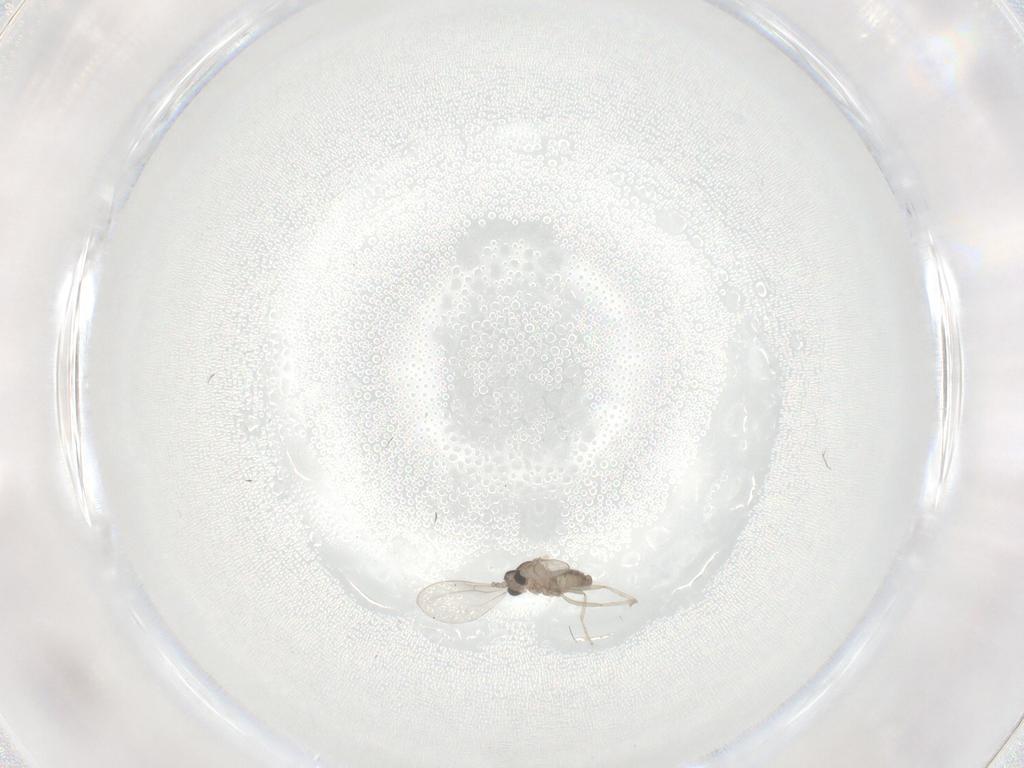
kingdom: Animalia
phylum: Arthropoda
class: Insecta
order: Diptera
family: Cecidomyiidae
